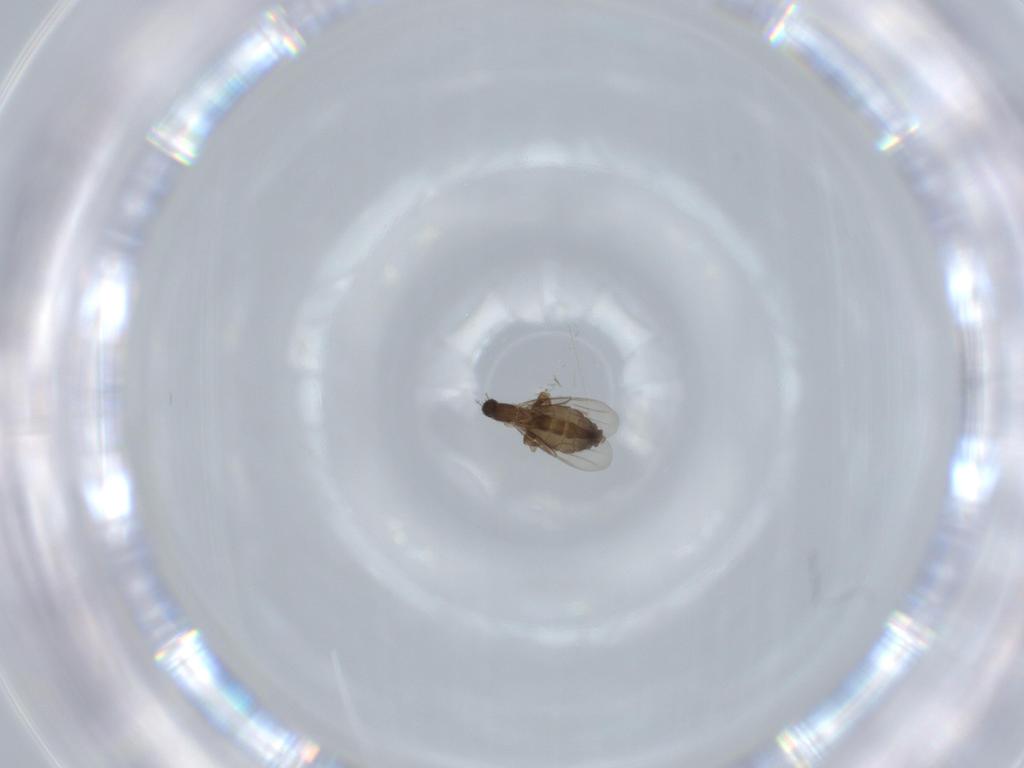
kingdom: Animalia
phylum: Arthropoda
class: Insecta
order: Diptera
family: Phoridae
